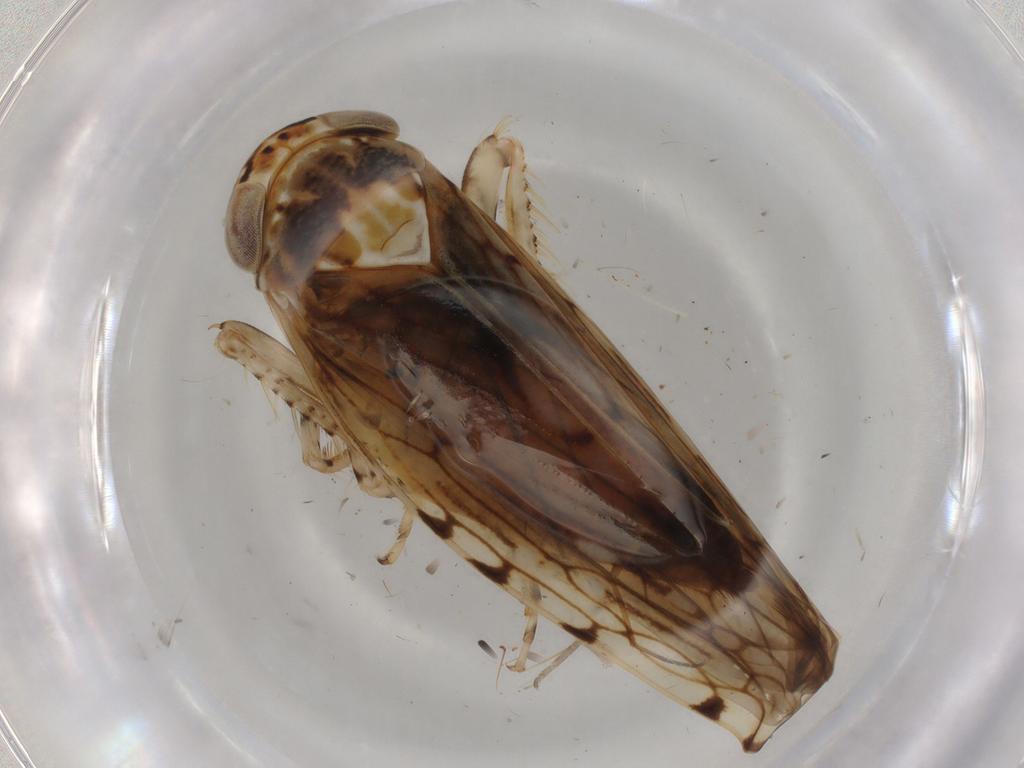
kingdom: Animalia
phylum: Arthropoda
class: Insecta
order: Hemiptera
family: Cicadellidae
